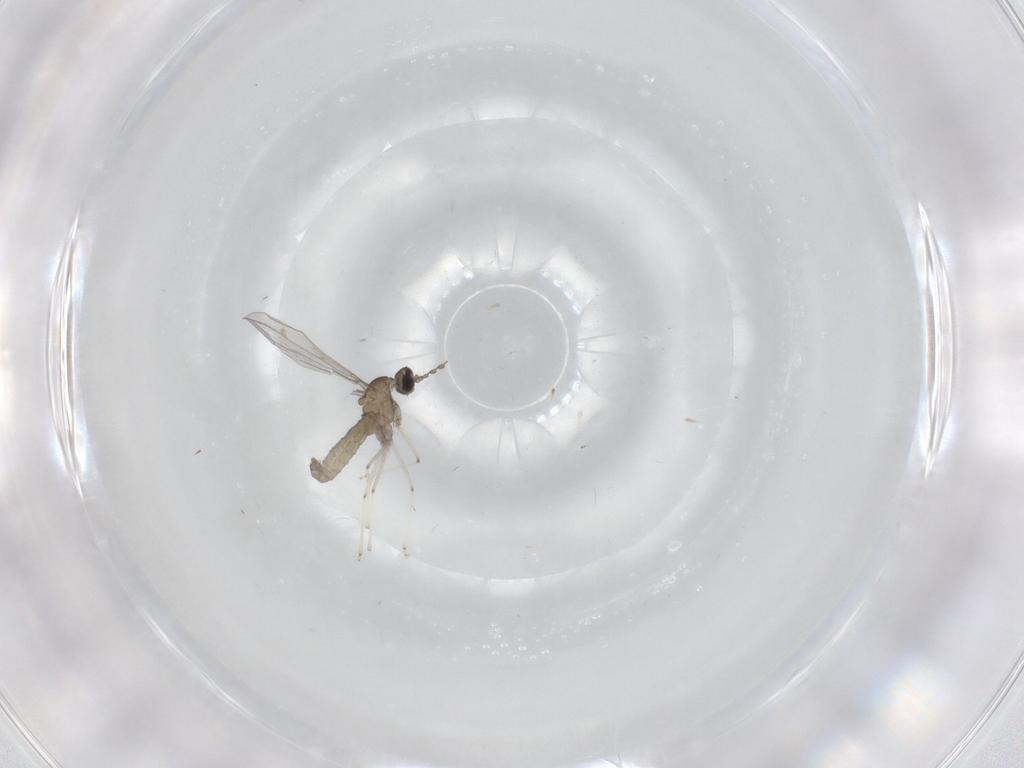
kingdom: Animalia
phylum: Arthropoda
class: Insecta
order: Diptera
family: Cecidomyiidae
